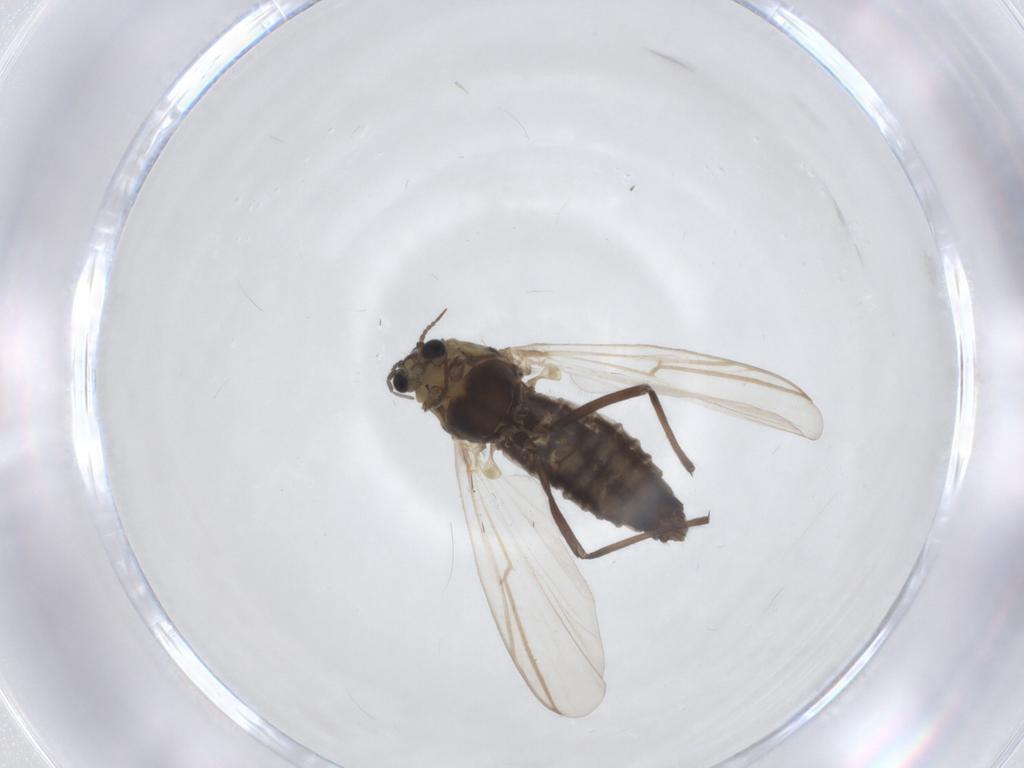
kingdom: Animalia
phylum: Arthropoda
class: Insecta
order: Diptera
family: Chironomidae
